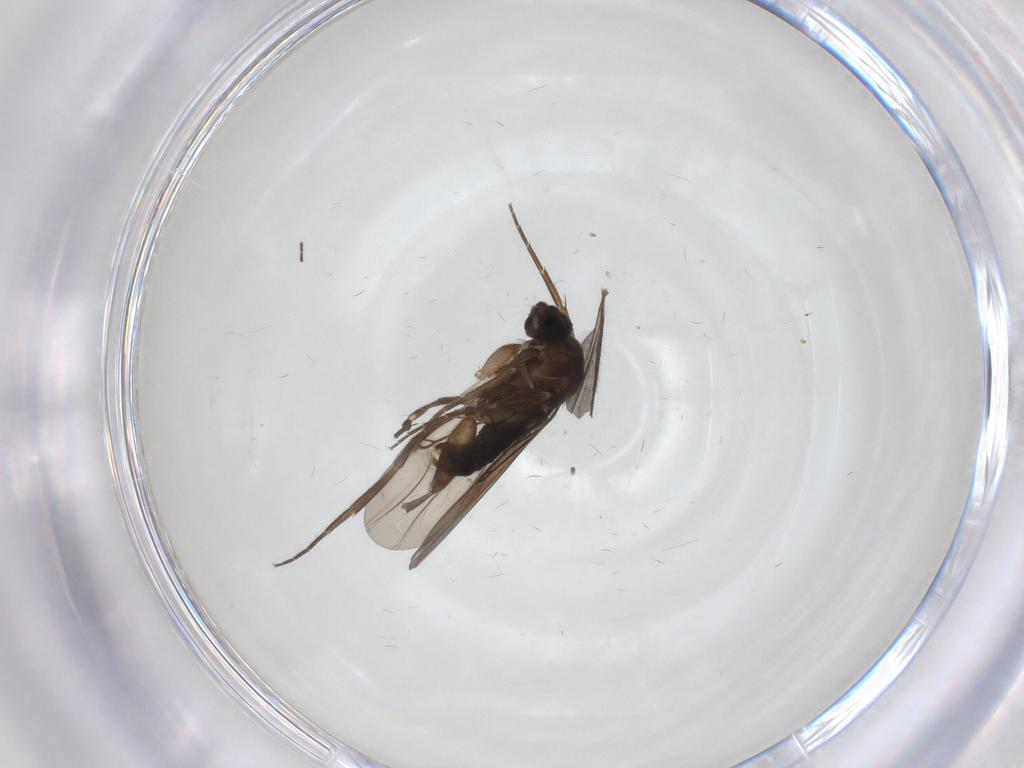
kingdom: Animalia
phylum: Arthropoda
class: Insecta
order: Diptera
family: Phoridae
